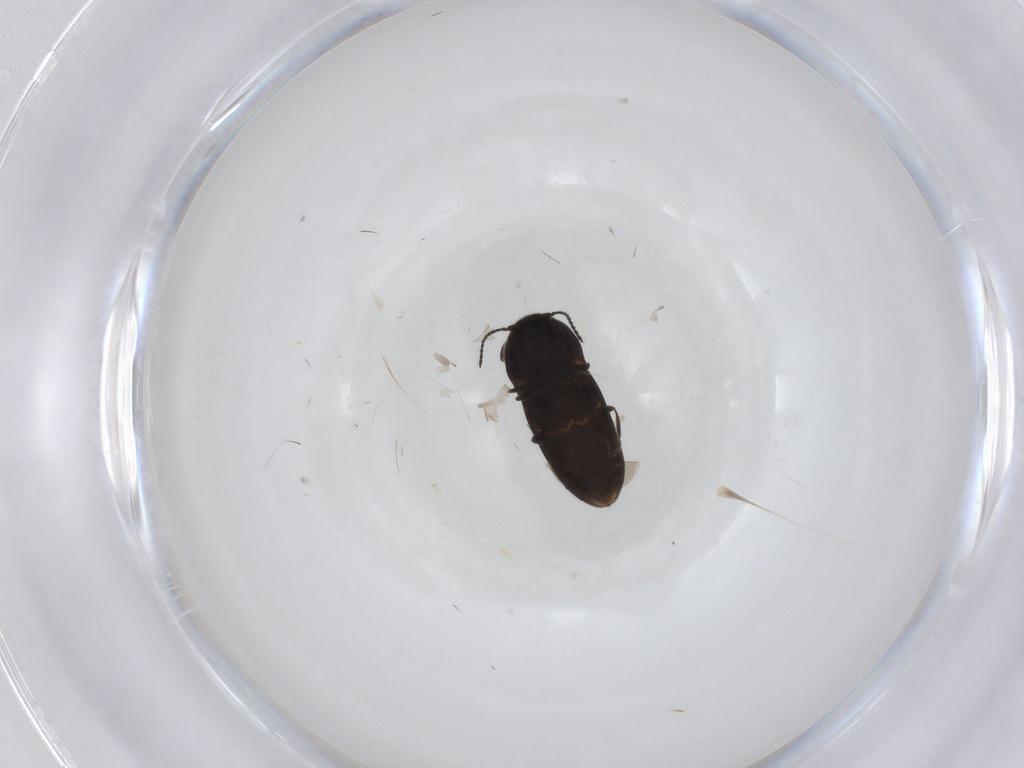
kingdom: Animalia
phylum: Arthropoda
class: Insecta
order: Coleoptera
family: Elateridae
